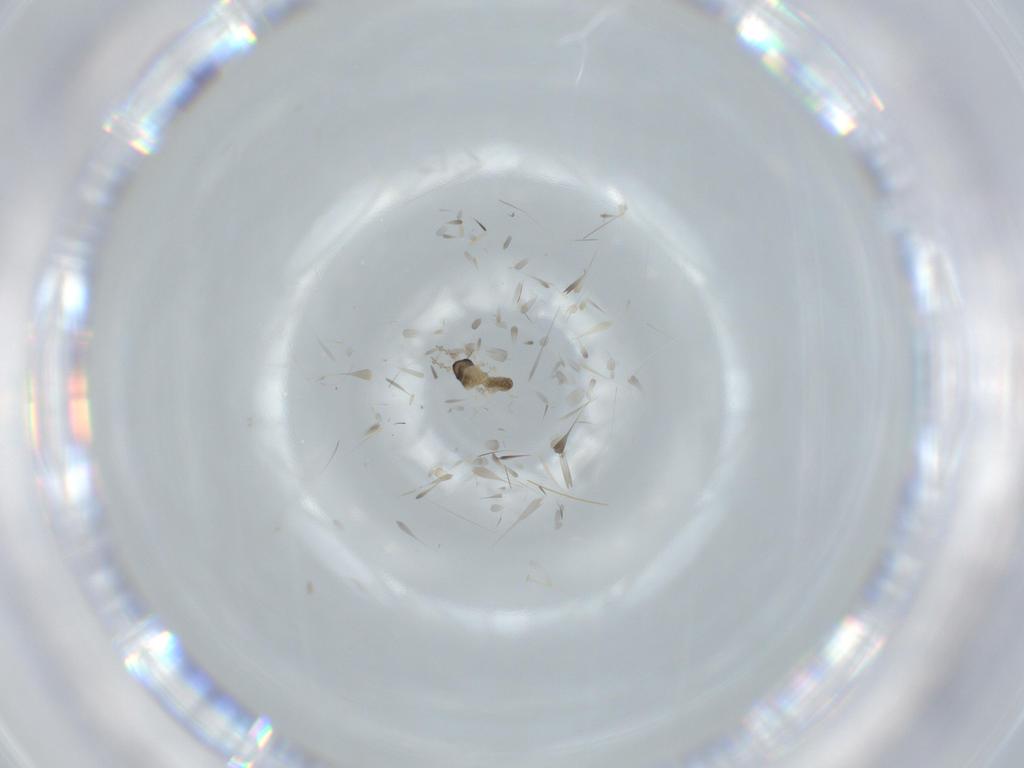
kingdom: Animalia
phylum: Arthropoda
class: Insecta
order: Diptera
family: Cecidomyiidae
